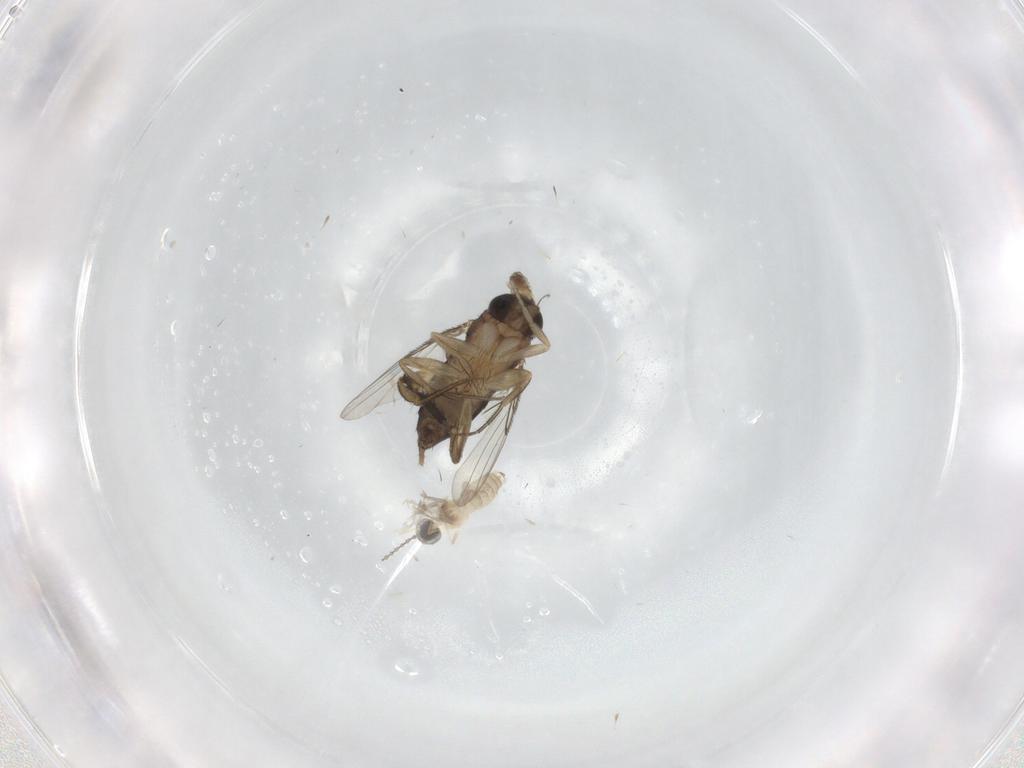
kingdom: Animalia
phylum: Arthropoda
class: Insecta
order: Diptera
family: Phoridae
